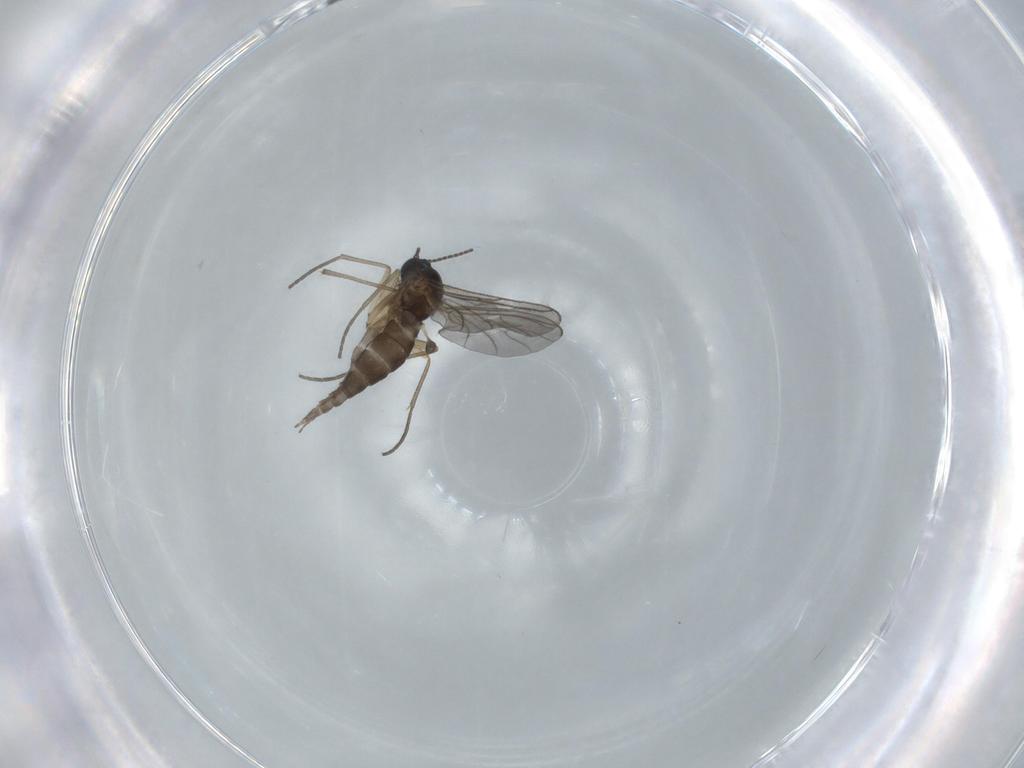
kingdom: Animalia
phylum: Arthropoda
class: Insecta
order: Diptera
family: Sciaridae
